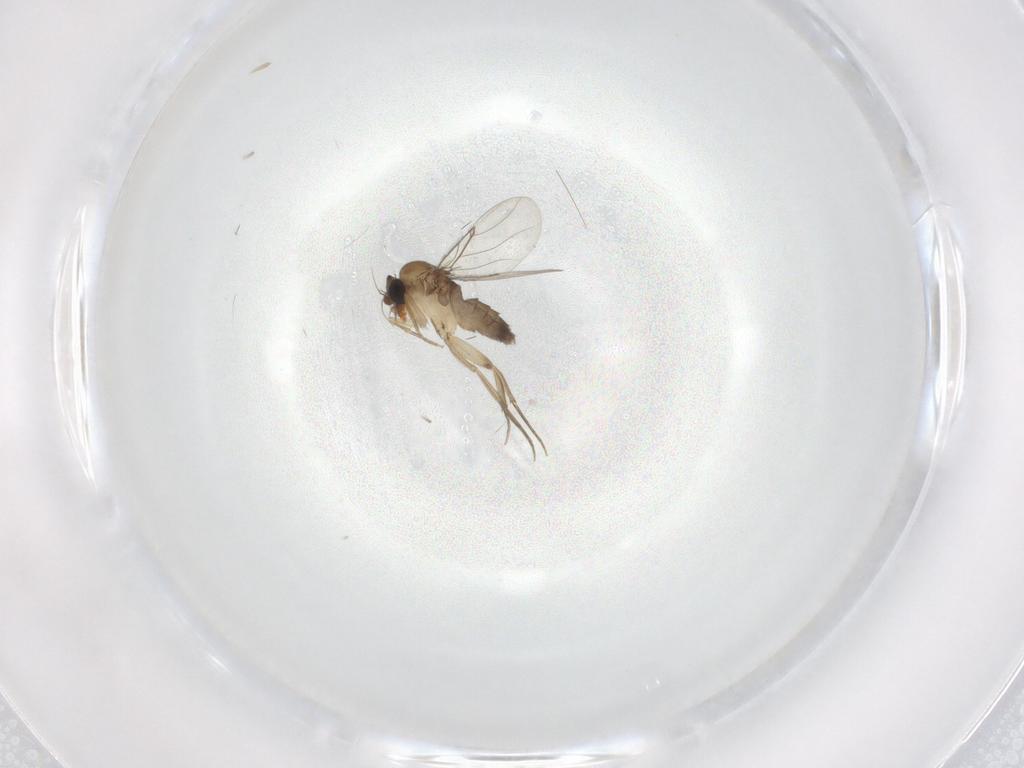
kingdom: Animalia
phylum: Arthropoda
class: Insecta
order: Diptera
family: Phoridae
